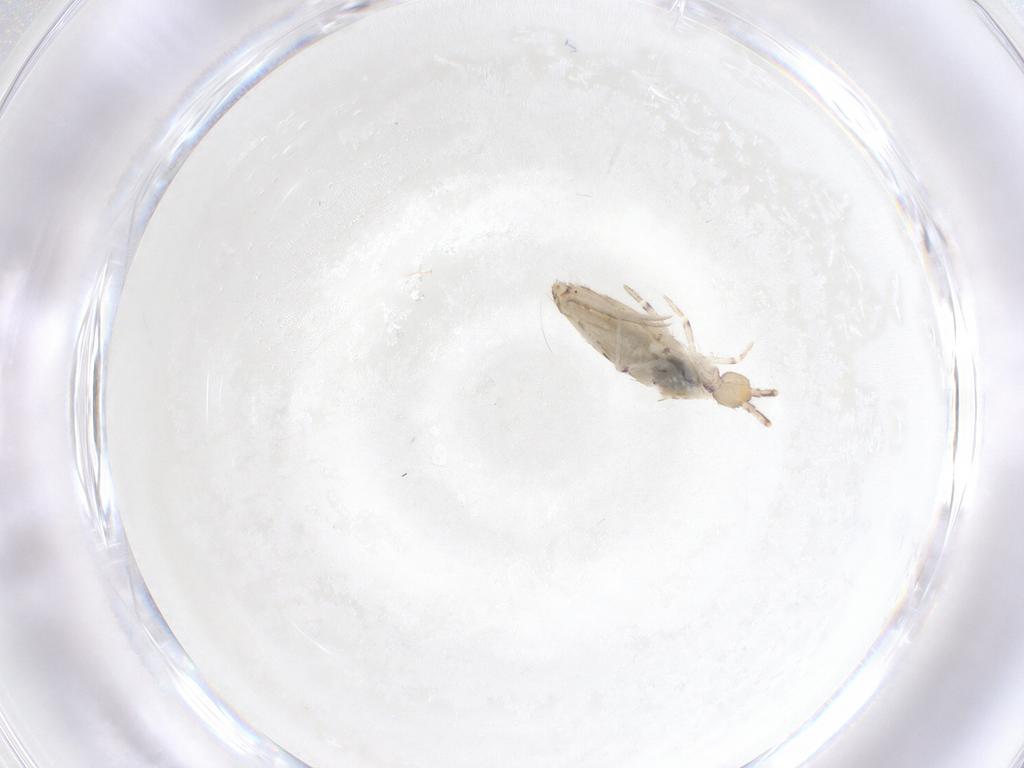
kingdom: Animalia
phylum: Arthropoda
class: Collembola
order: Entomobryomorpha
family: Entomobryidae
